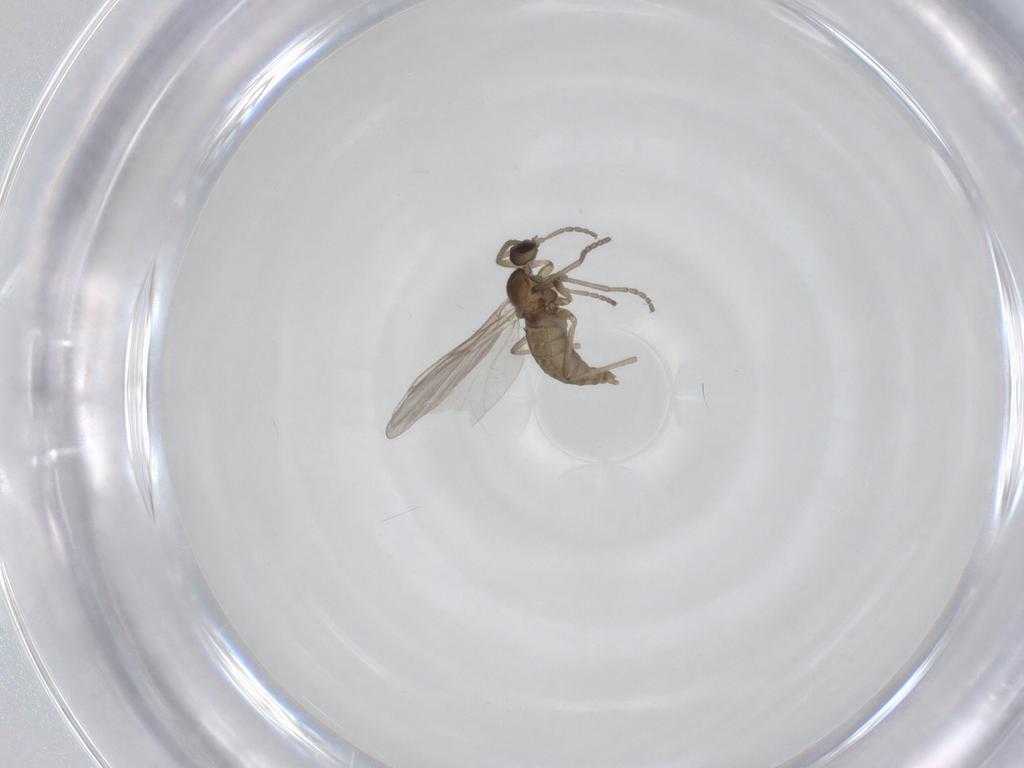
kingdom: Animalia
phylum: Arthropoda
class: Insecta
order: Diptera
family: Cecidomyiidae
